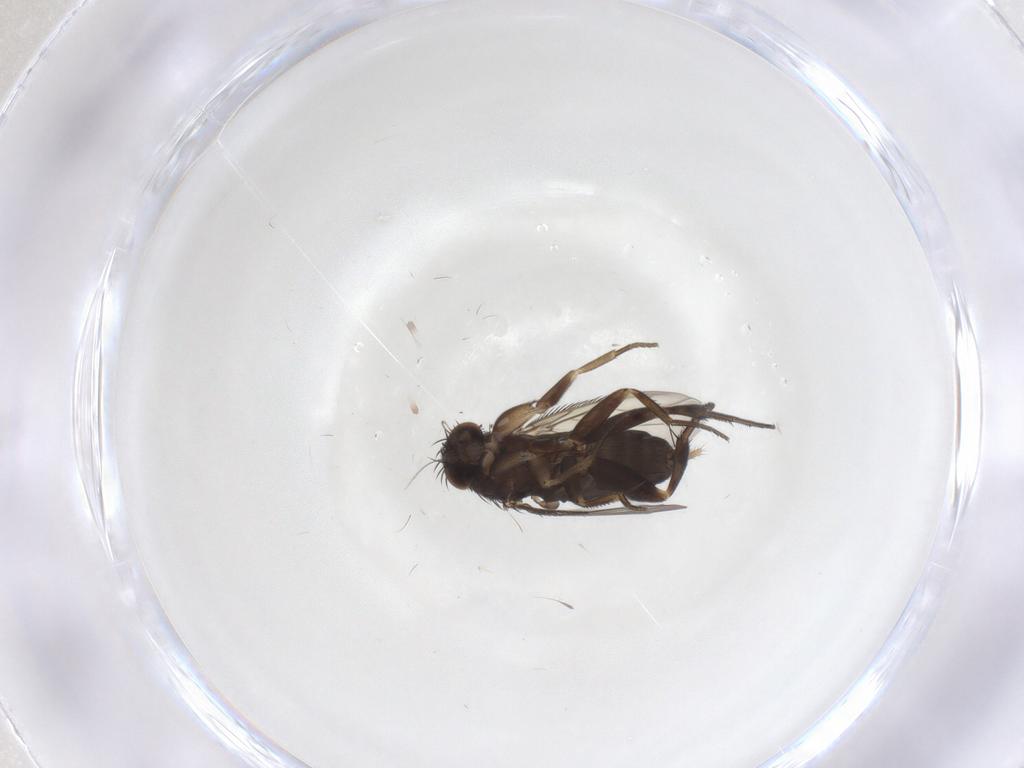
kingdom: Animalia
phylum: Arthropoda
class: Insecta
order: Diptera
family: Phoridae
